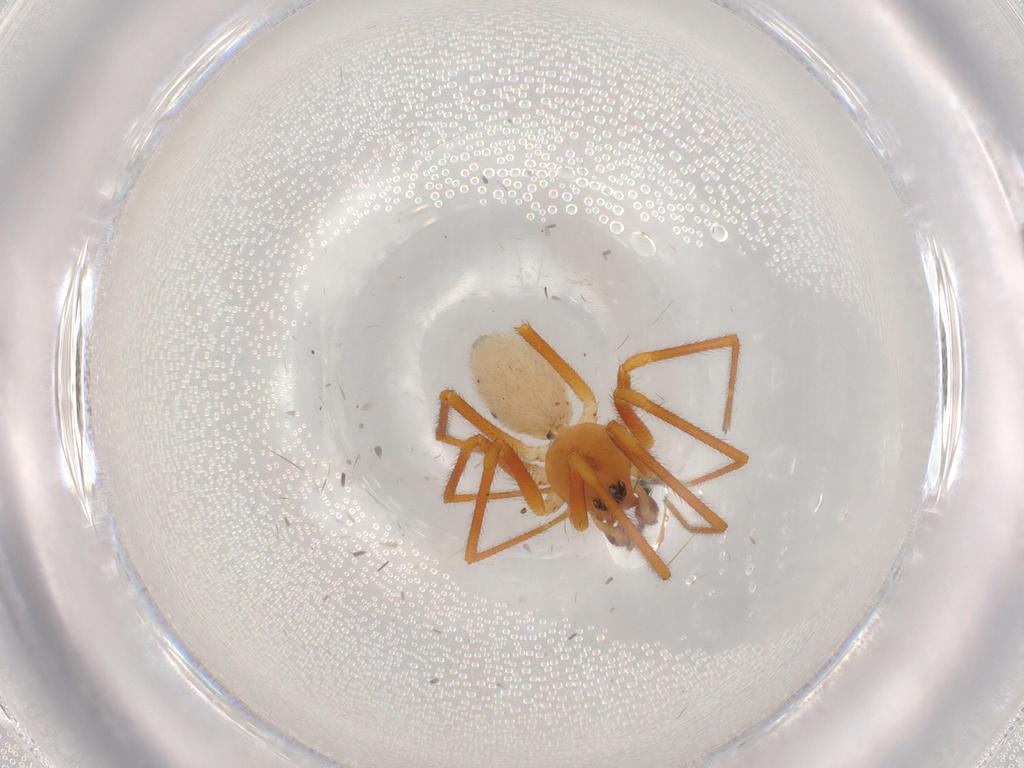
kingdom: Animalia
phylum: Arthropoda
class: Arachnida
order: Araneae
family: Linyphiidae
